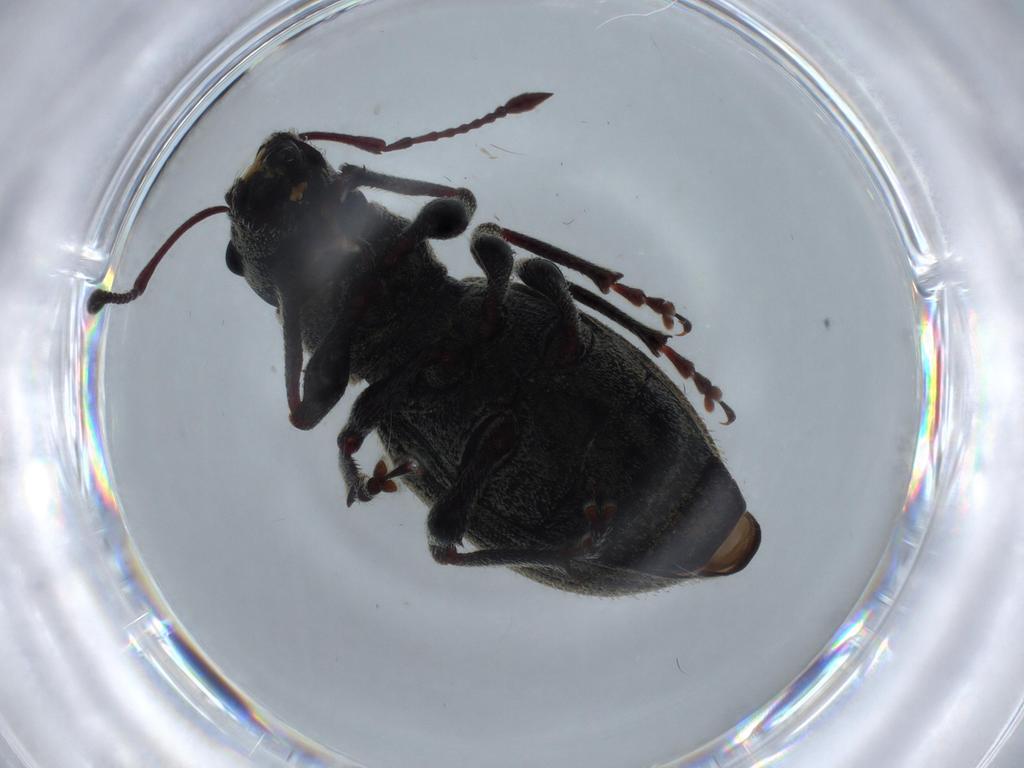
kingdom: Animalia
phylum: Arthropoda
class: Insecta
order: Coleoptera
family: Curculionidae
